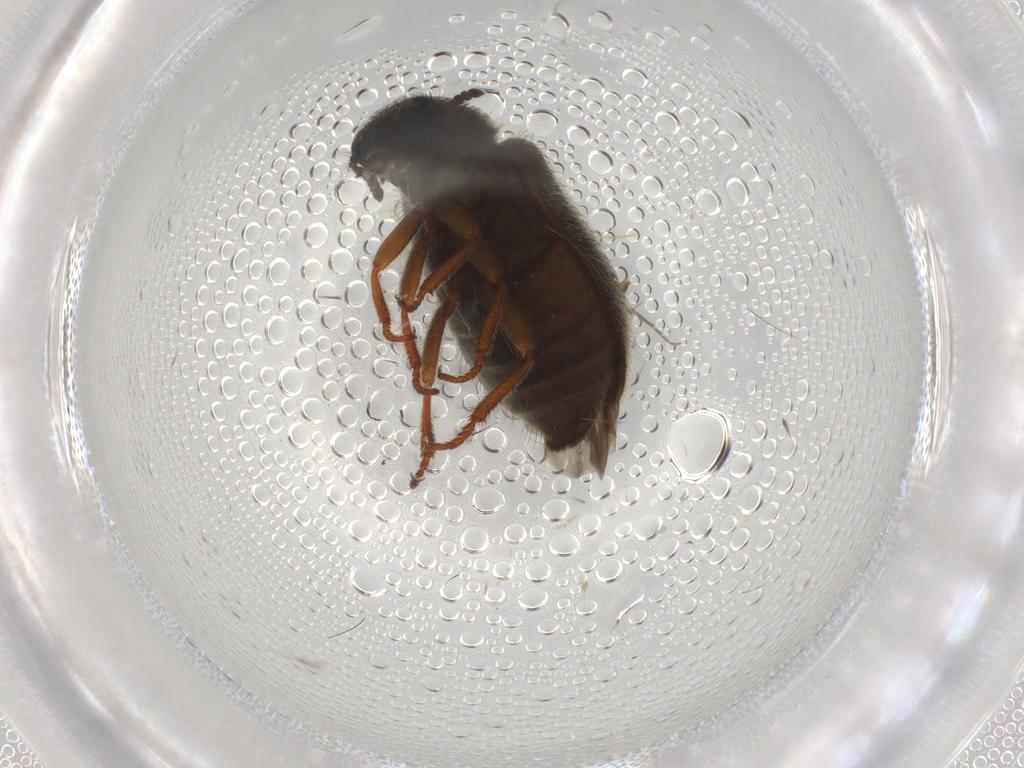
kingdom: Animalia
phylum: Arthropoda
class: Insecta
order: Coleoptera
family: Melyridae
